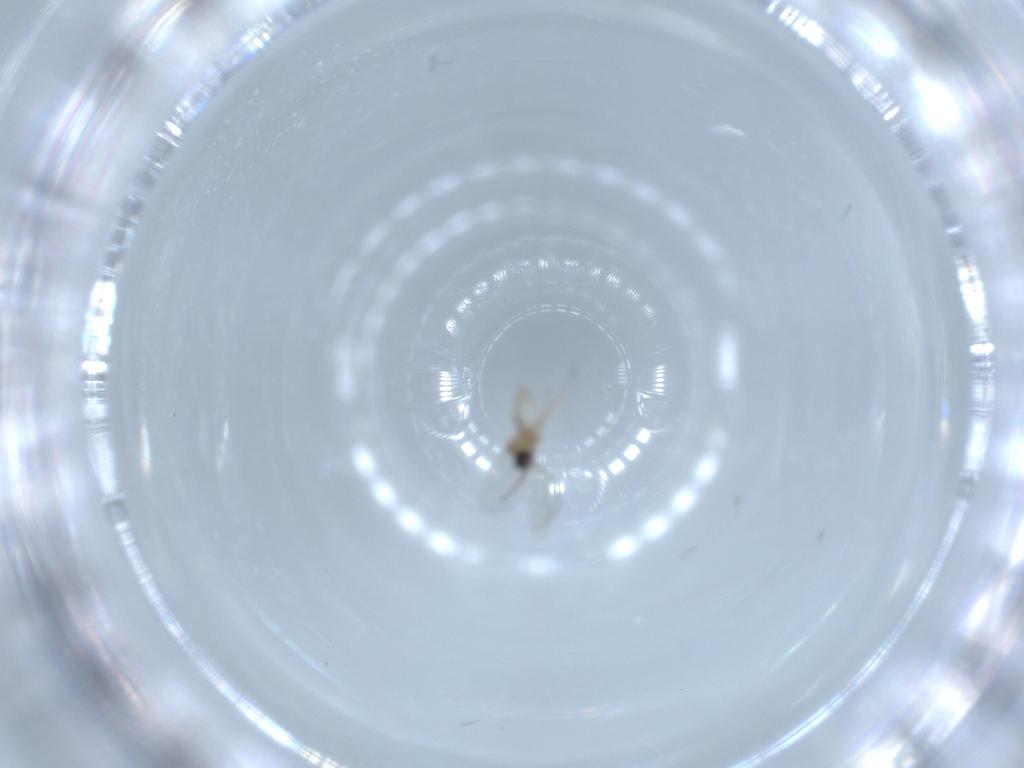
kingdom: Animalia
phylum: Arthropoda
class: Insecta
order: Diptera
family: Cecidomyiidae
